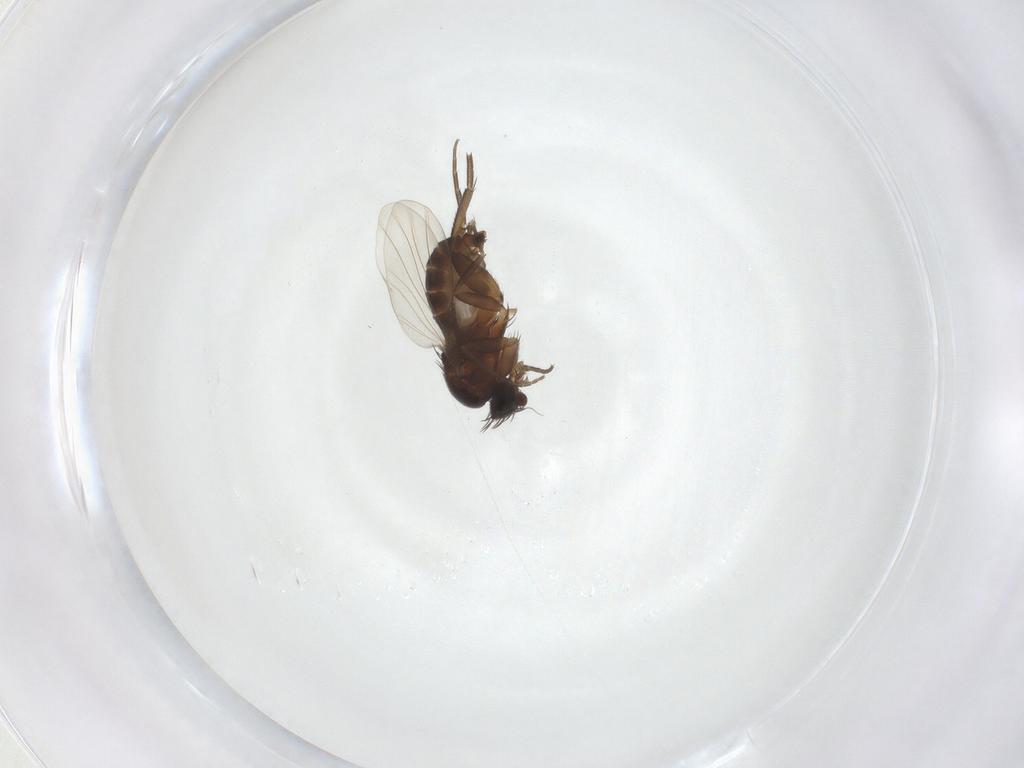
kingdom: Animalia
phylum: Arthropoda
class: Insecta
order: Diptera
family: Phoridae
